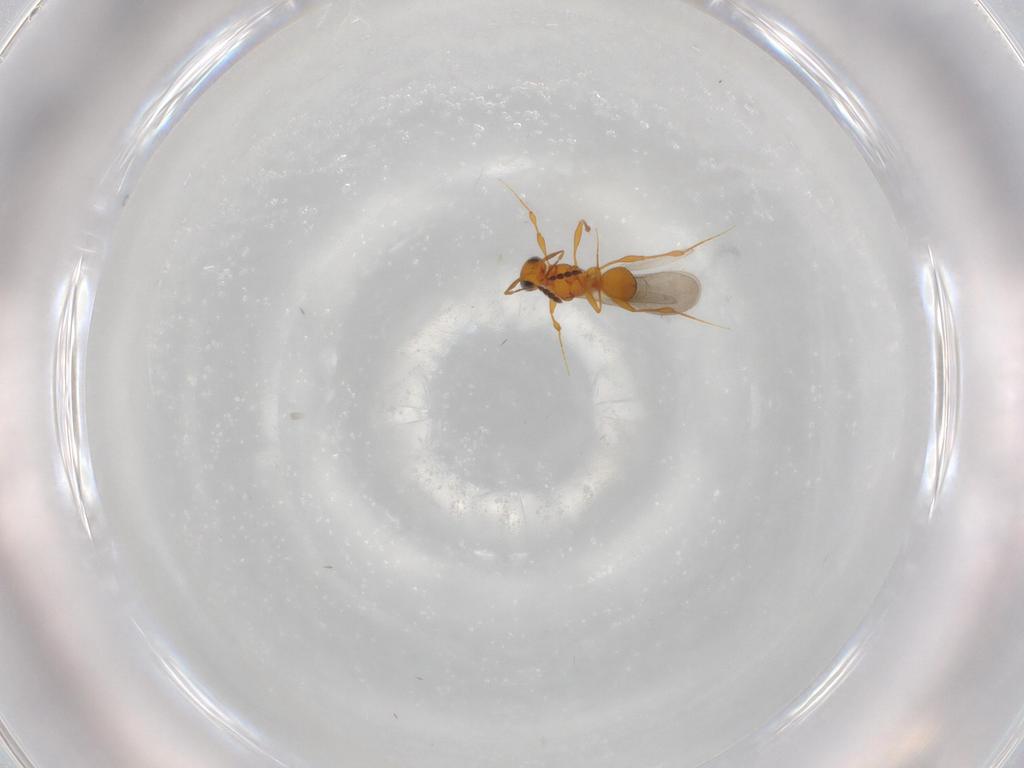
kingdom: Animalia
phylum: Arthropoda
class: Insecta
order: Hymenoptera
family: Platygastridae
